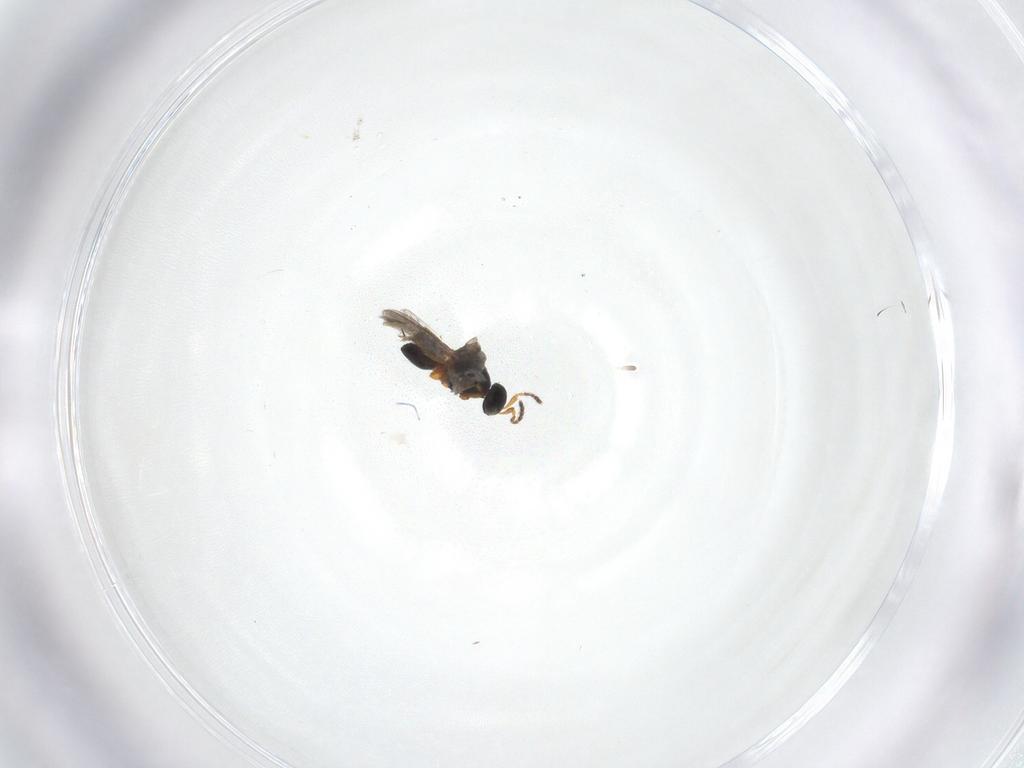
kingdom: Animalia
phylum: Arthropoda
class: Insecta
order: Hymenoptera
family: Platygastridae
